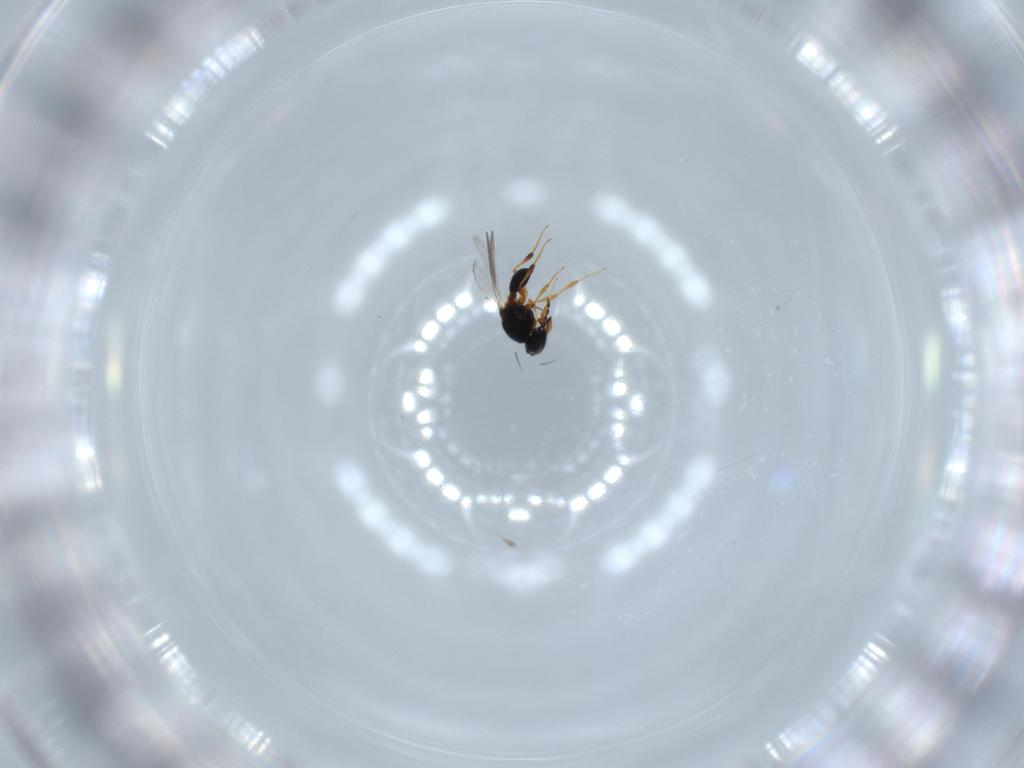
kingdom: Animalia
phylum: Arthropoda
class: Insecta
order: Hymenoptera
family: Platygastridae
